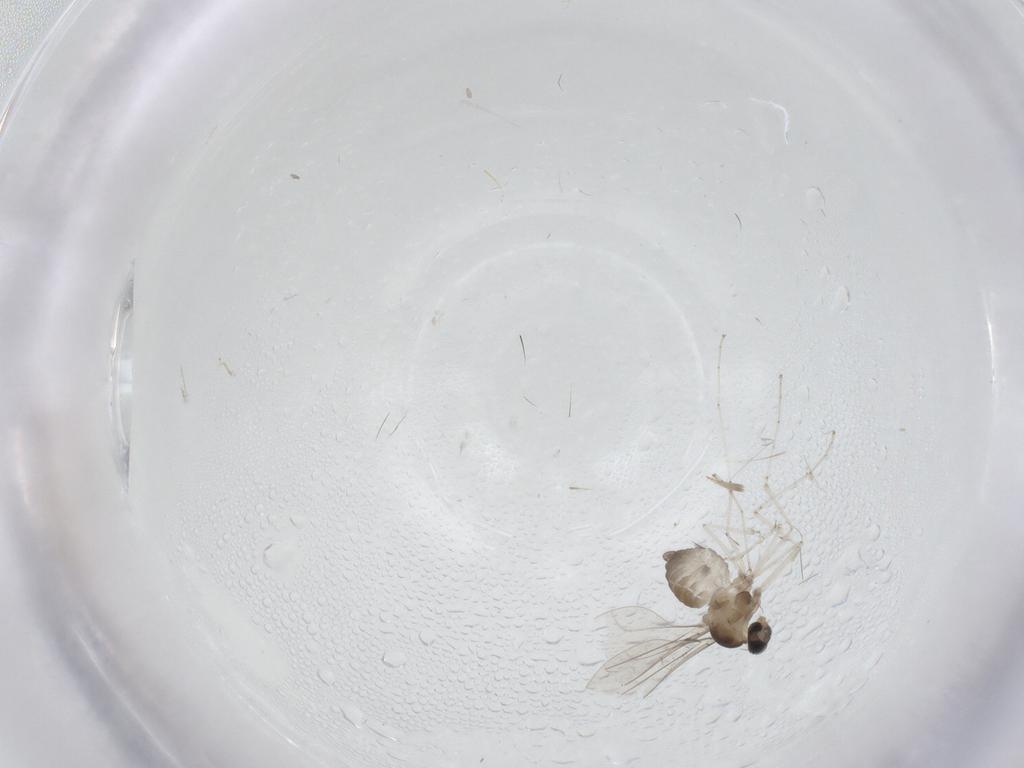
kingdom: Animalia
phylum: Arthropoda
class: Insecta
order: Diptera
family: Cecidomyiidae
